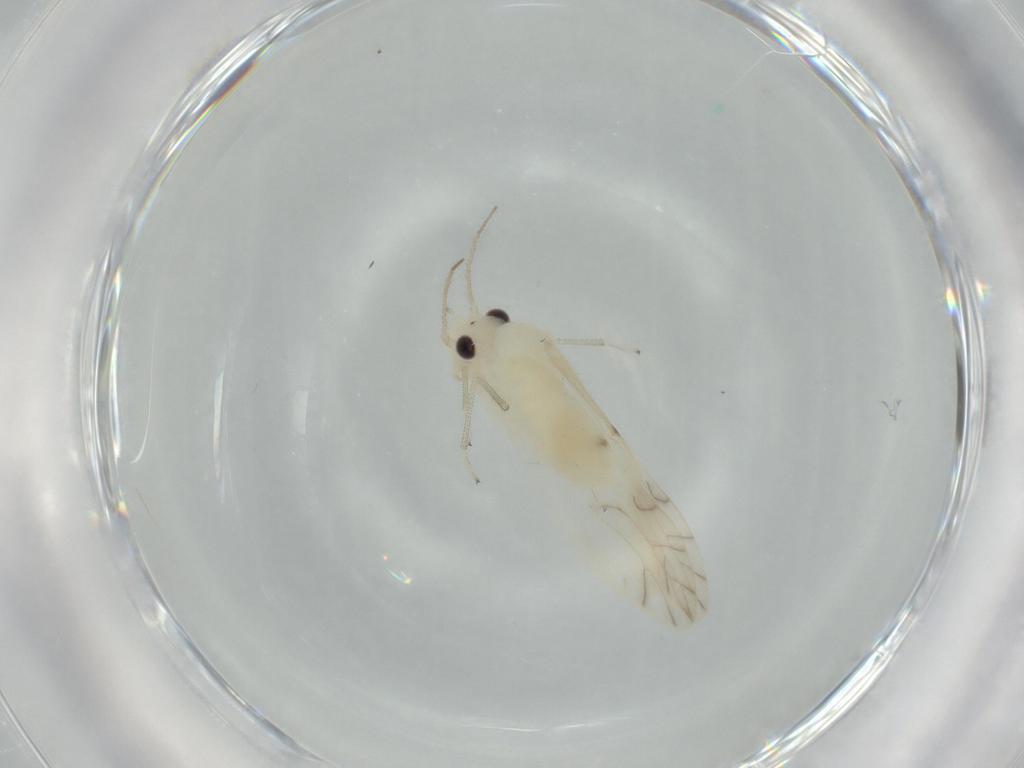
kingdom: Animalia
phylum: Arthropoda
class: Insecta
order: Psocodea
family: Caeciliusidae
